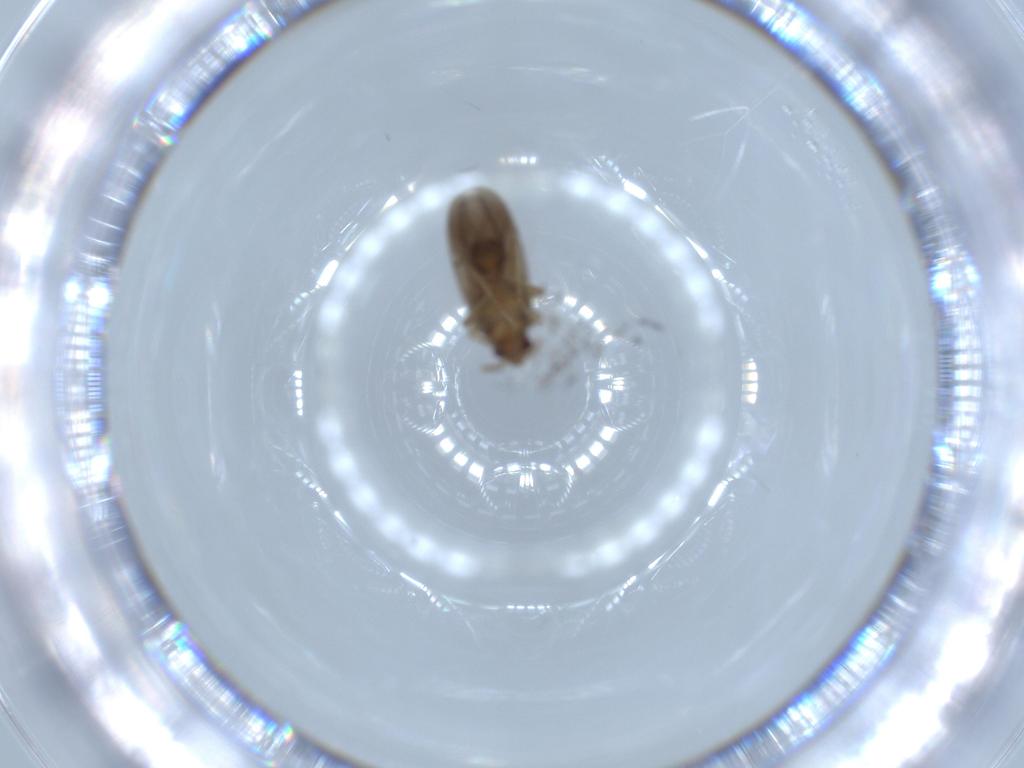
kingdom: Animalia
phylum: Arthropoda
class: Insecta
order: Hemiptera
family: Ceratocombidae
